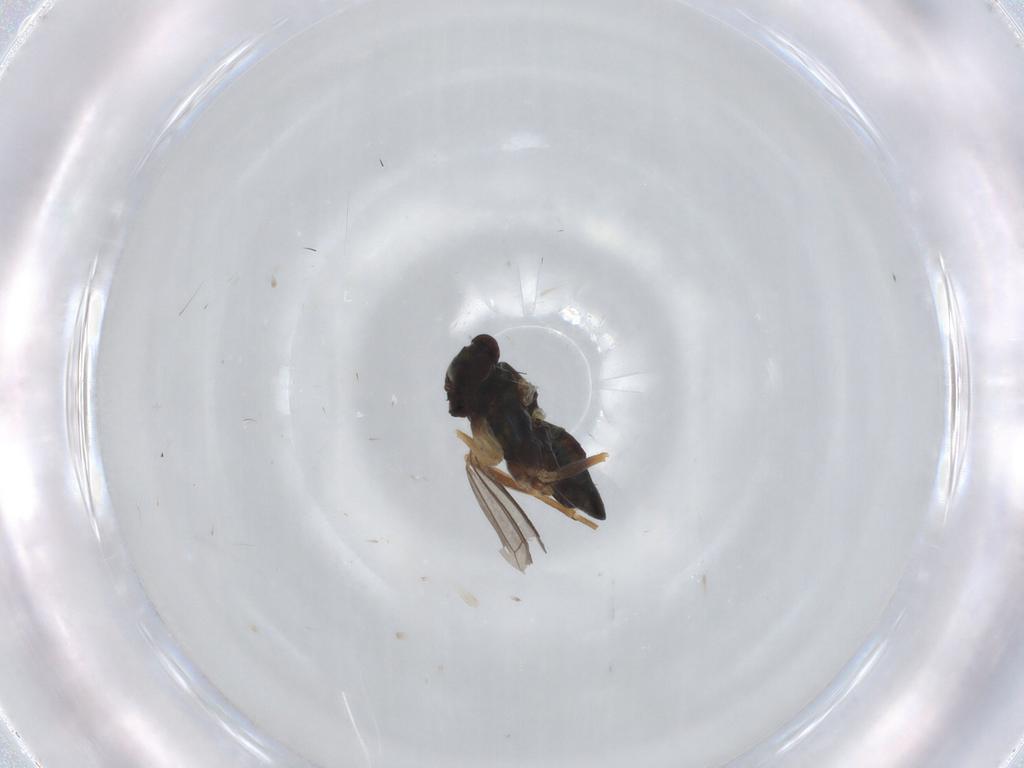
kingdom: Animalia
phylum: Arthropoda
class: Insecta
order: Diptera
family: Dolichopodidae
